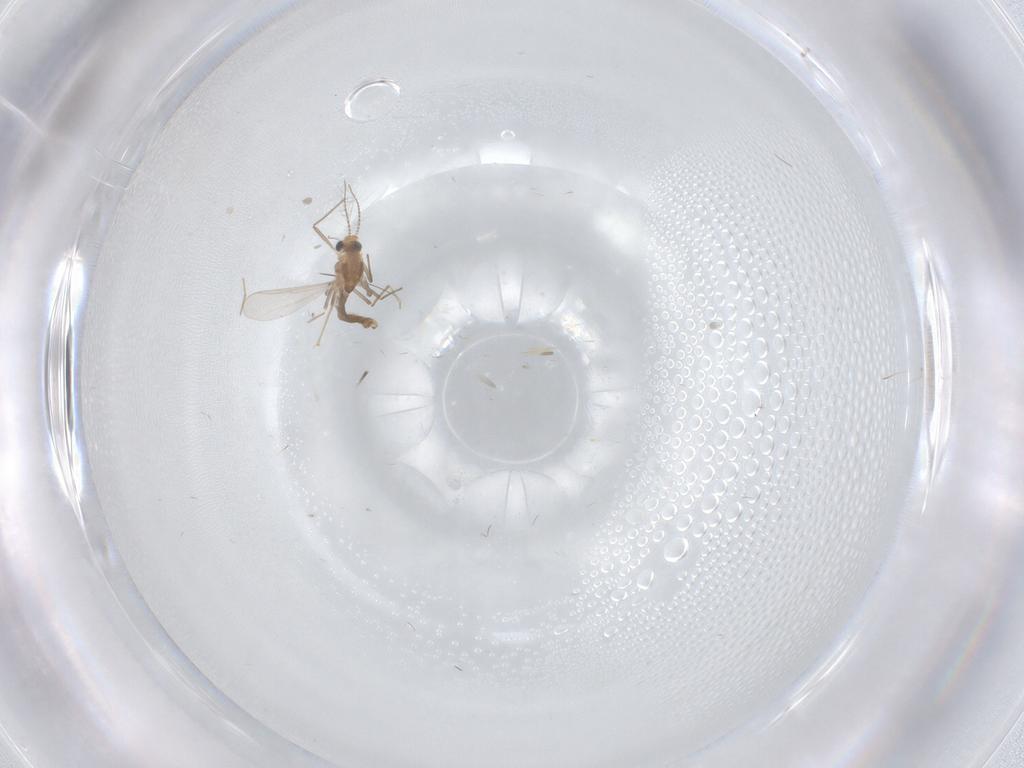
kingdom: Animalia
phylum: Arthropoda
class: Insecta
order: Diptera
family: Chironomidae
